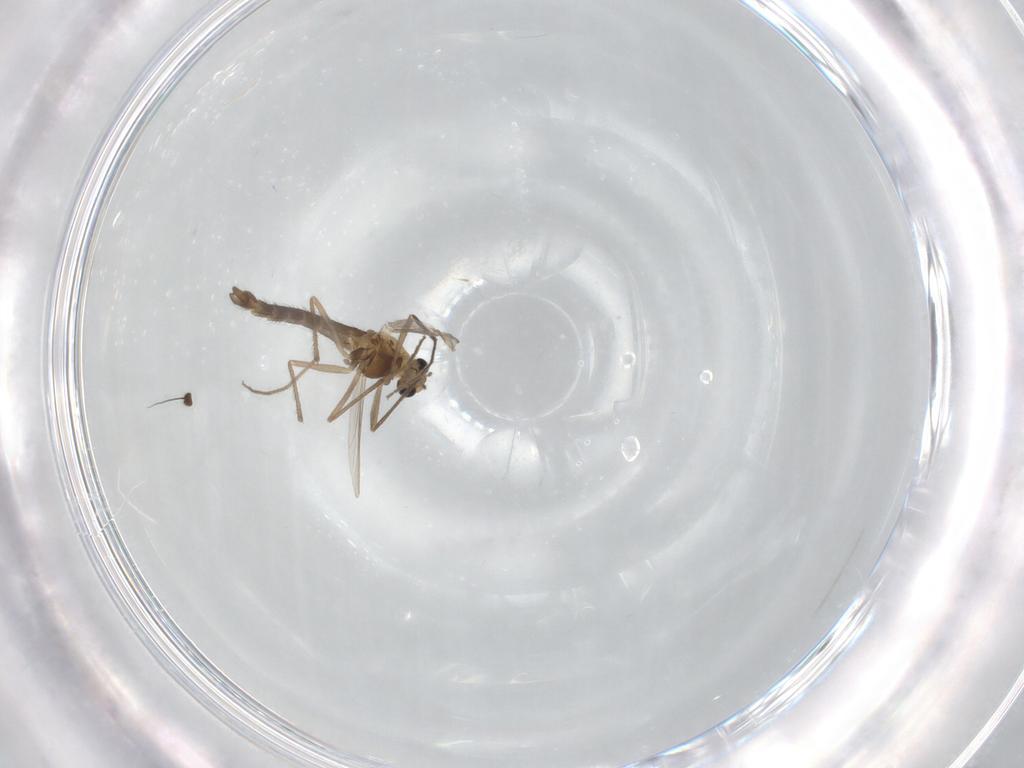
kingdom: Animalia
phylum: Arthropoda
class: Insecta
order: Diptera
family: Chironomidae
